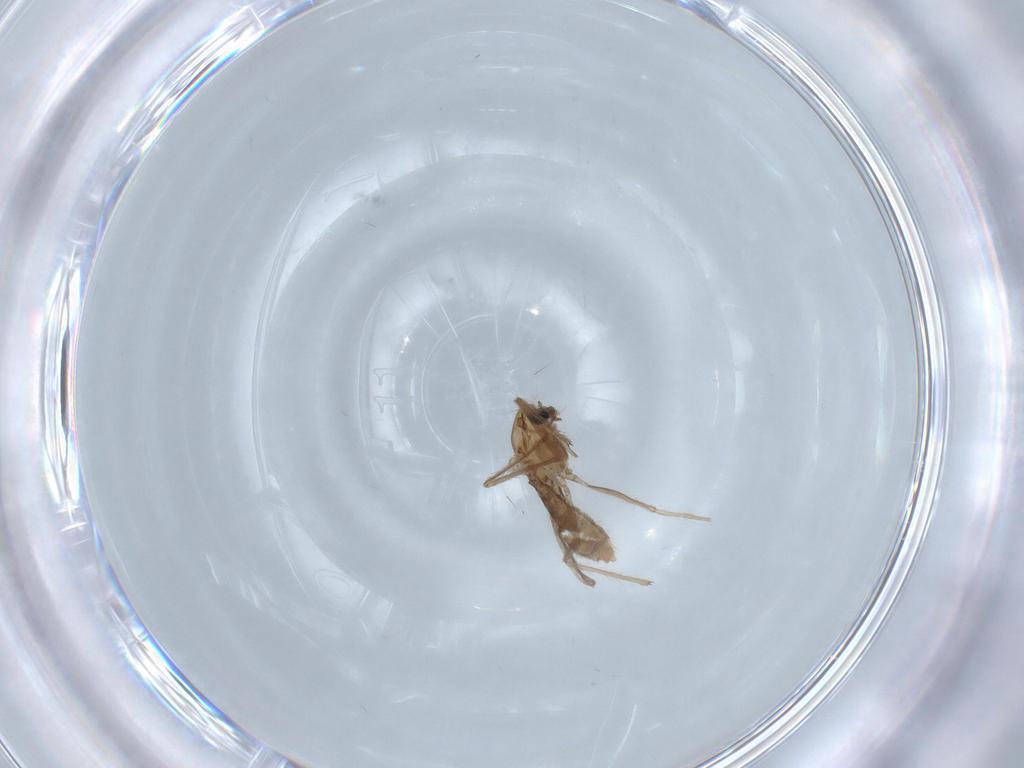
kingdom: Animalia
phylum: Arthropoda
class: Insecta
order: Diptera
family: Chironomidae
